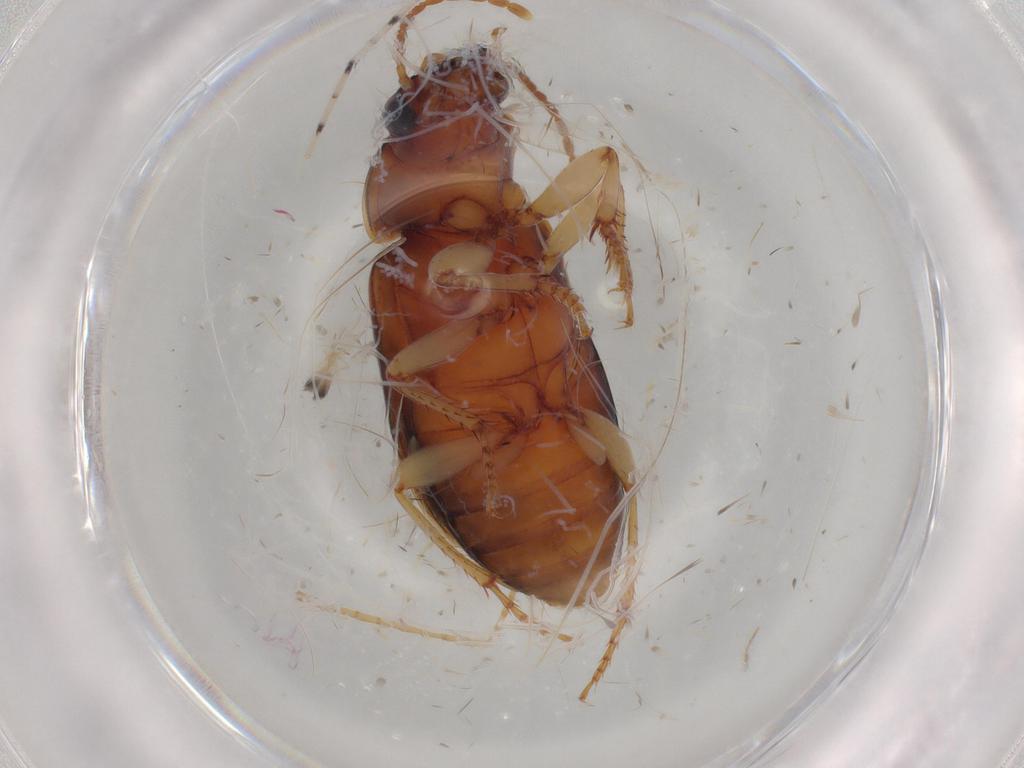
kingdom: Animalia
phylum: Arthropoda
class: Insecta
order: Coleoptera
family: Carabidae
